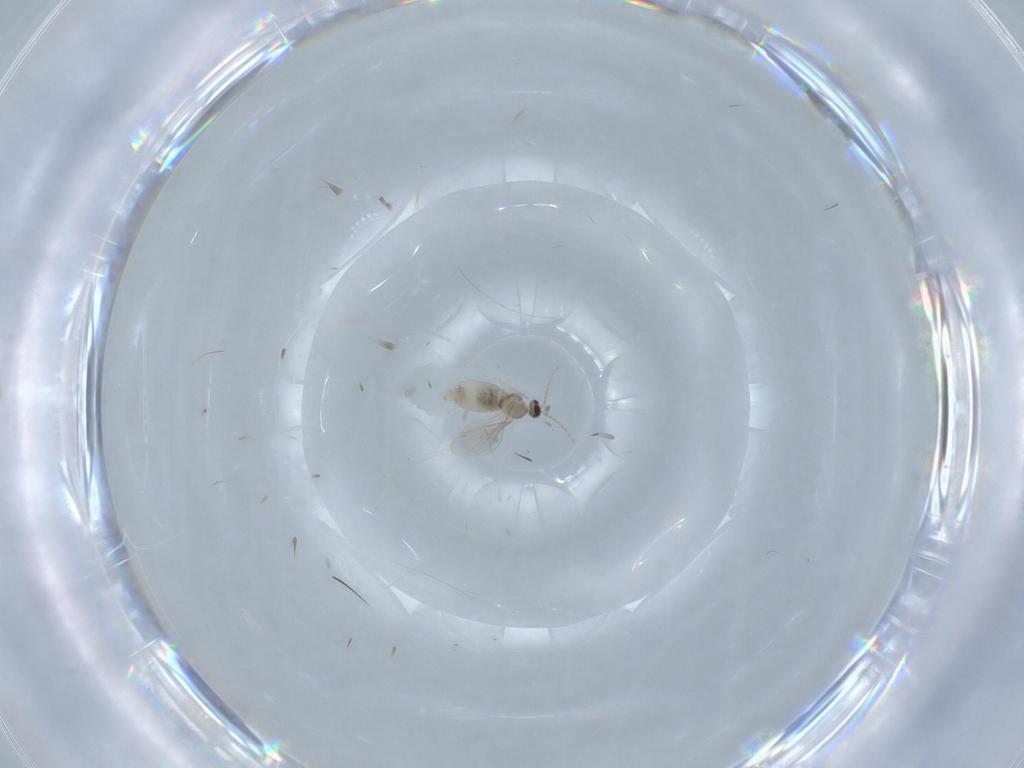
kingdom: Animalia
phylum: Arthropoda
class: Insecta
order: Diptera
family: Cecidomyiidae
